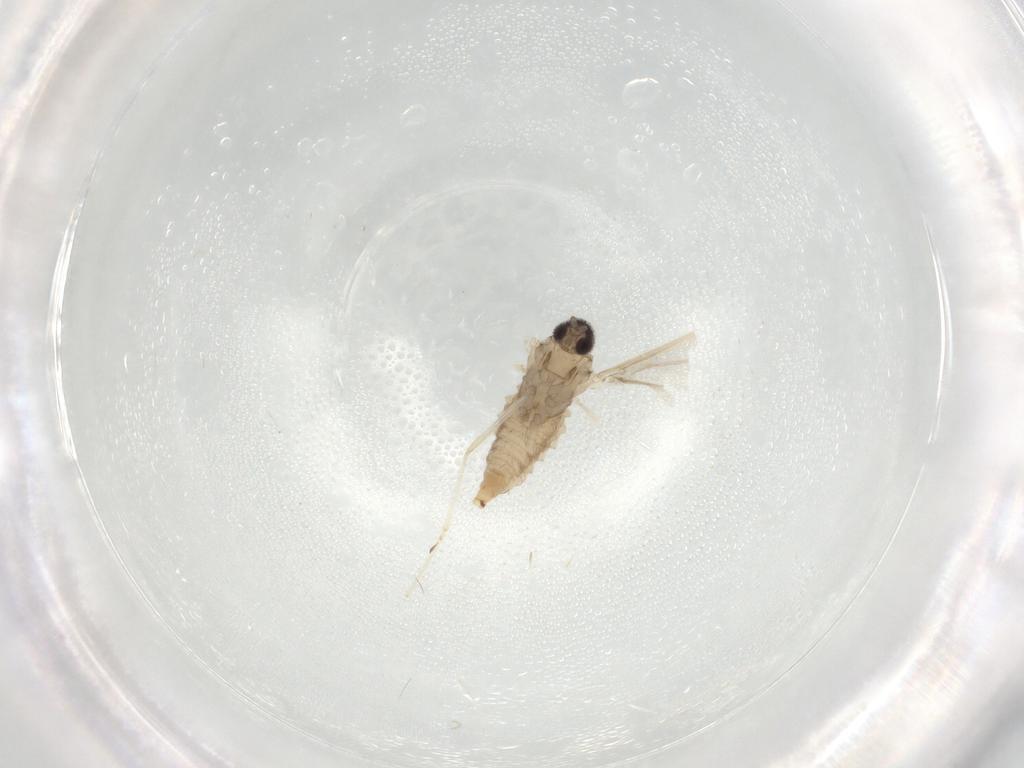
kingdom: Animalia
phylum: Arthropoda
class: Insecta
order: Diptera
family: Cecidomyiidae
